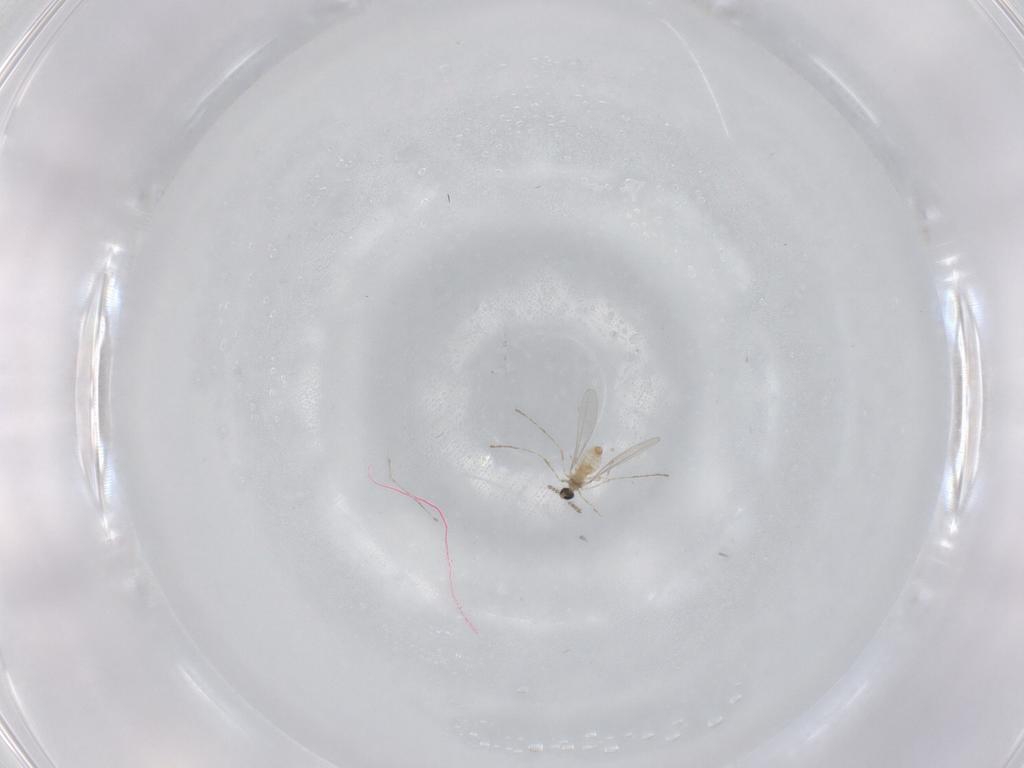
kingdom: Animalia
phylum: Arthropoda
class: Insecta
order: Diptera
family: Cecidomyiidae
